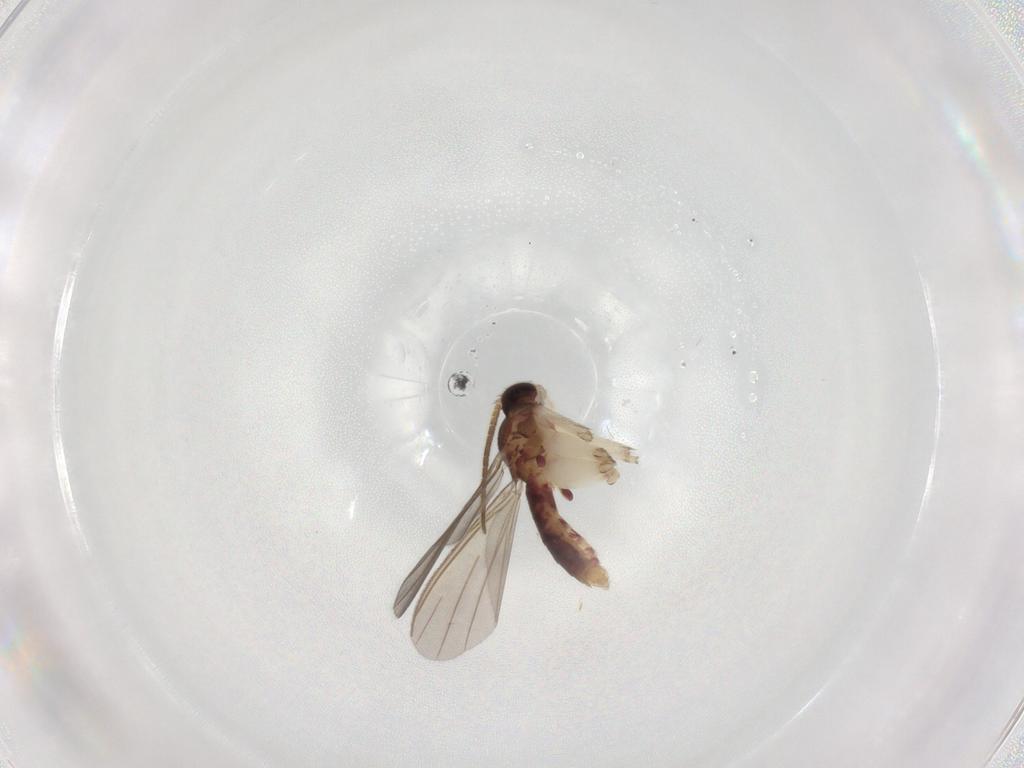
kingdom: Animalia
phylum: Arthropoda
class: Insecta
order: Diptera
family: Mycetophilidae
